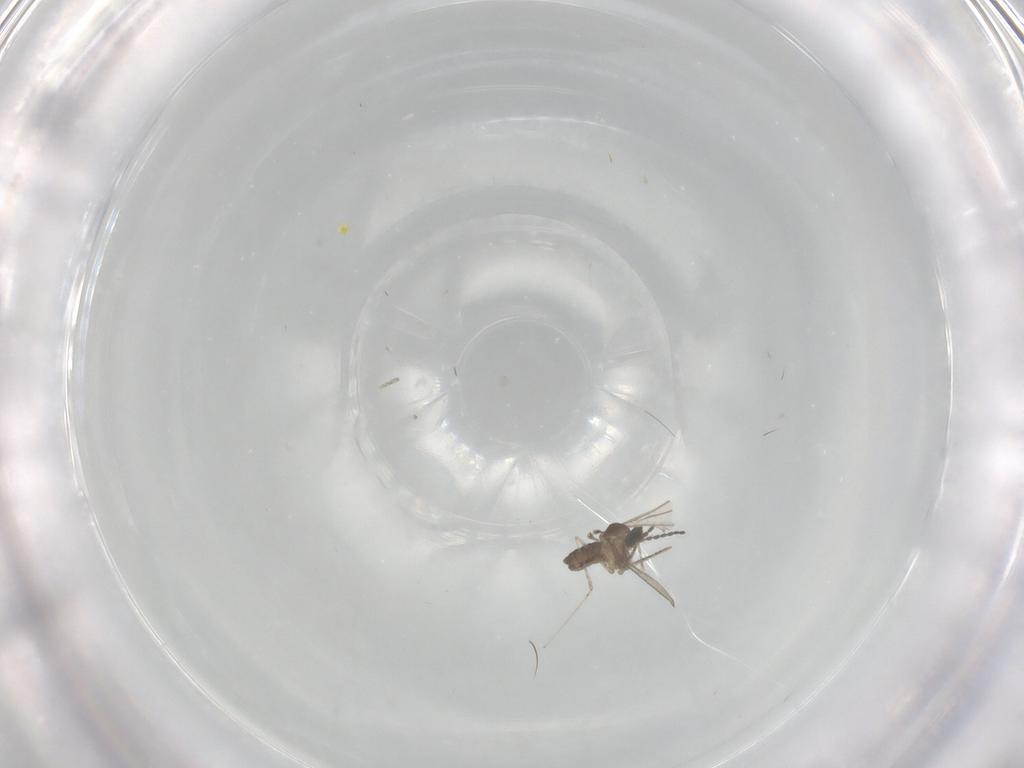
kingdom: Animalia
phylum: Arthropoda
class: Insecta
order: Diptera
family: Cecidomyiidae
